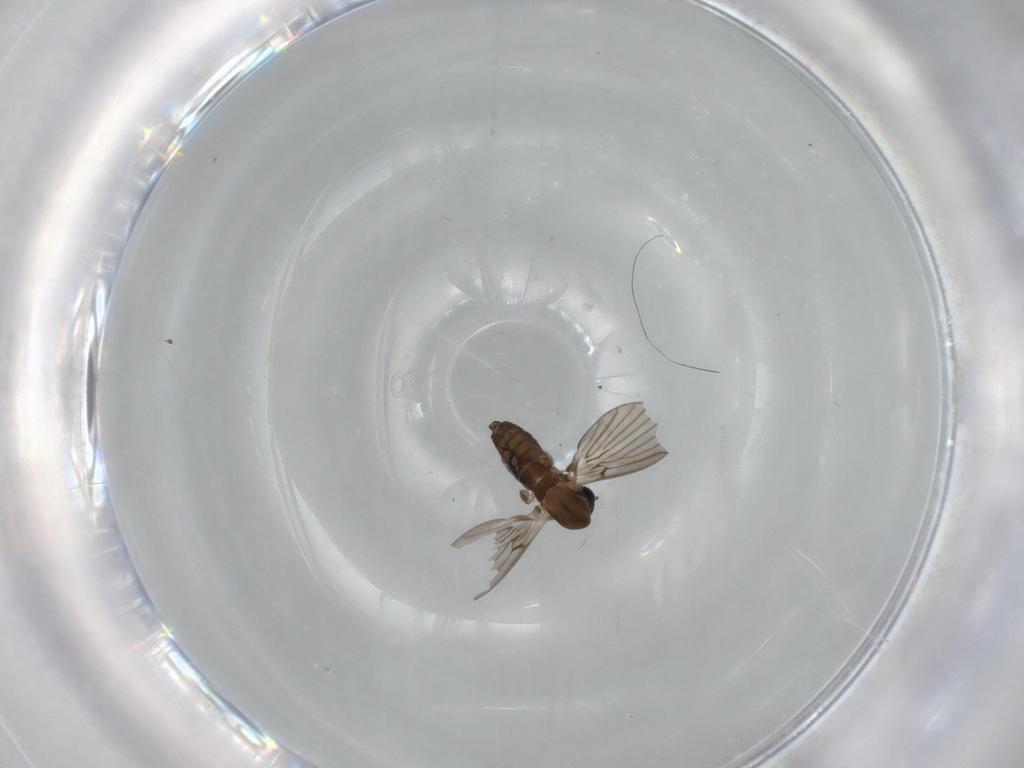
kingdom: Animalia
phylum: Arthropoda
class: Insecta
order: Diptera
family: Psychodidae
